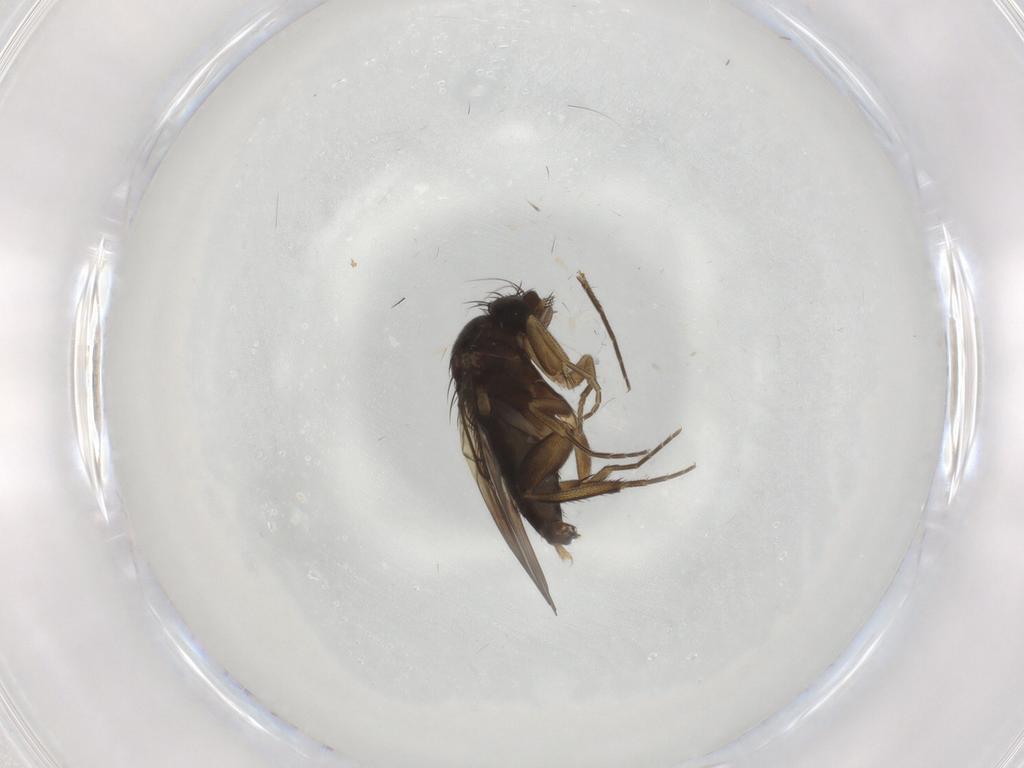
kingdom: Animalia
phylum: Arthropoda
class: Insecta
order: Diptera
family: Phoridae
